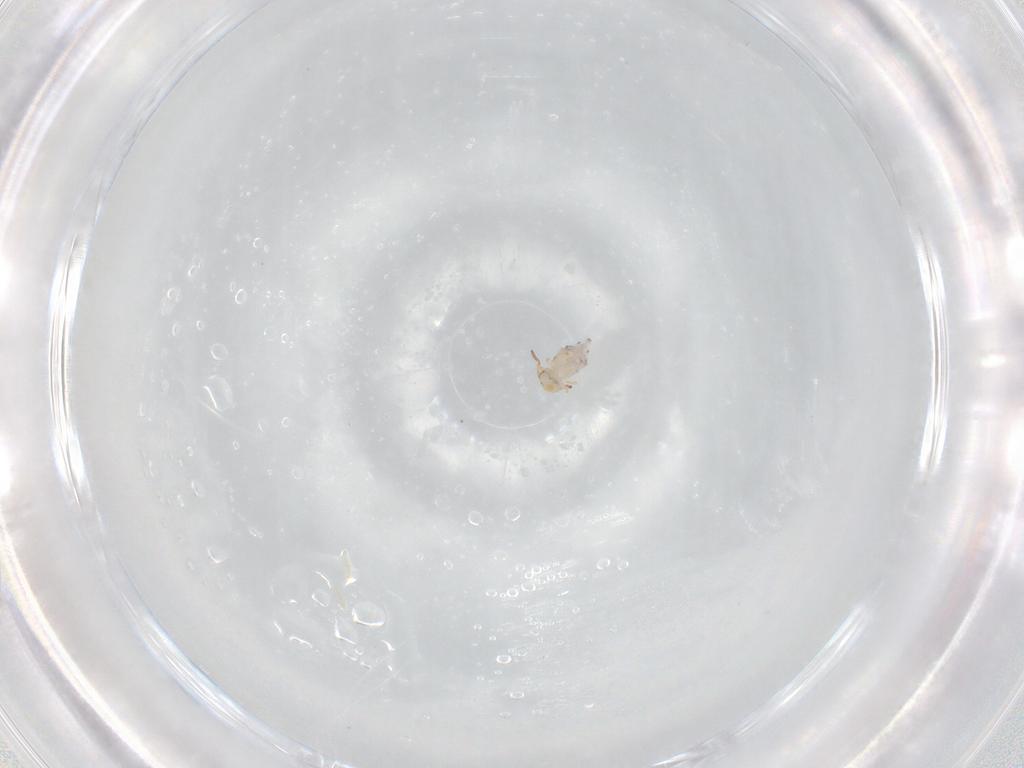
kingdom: Animalia
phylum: Arthropoda
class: Collembola
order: Symphypleona
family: Bourletiellidae
